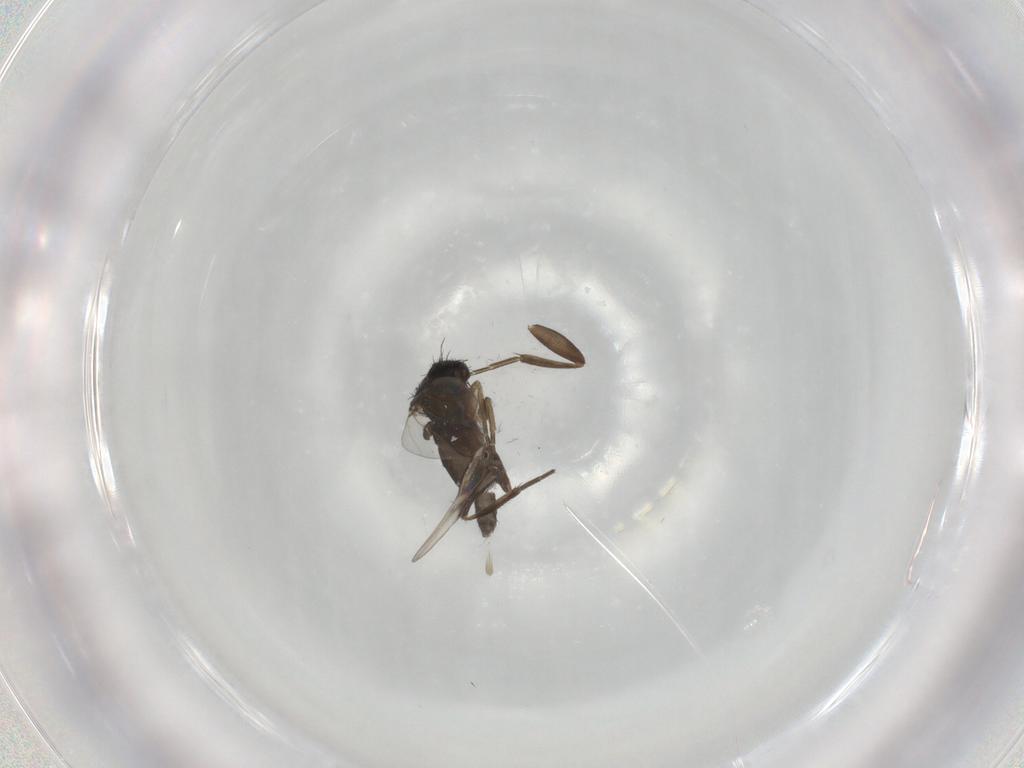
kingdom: Animalia
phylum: Arthropoda
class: Insecta
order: Diptera
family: Phoridae
